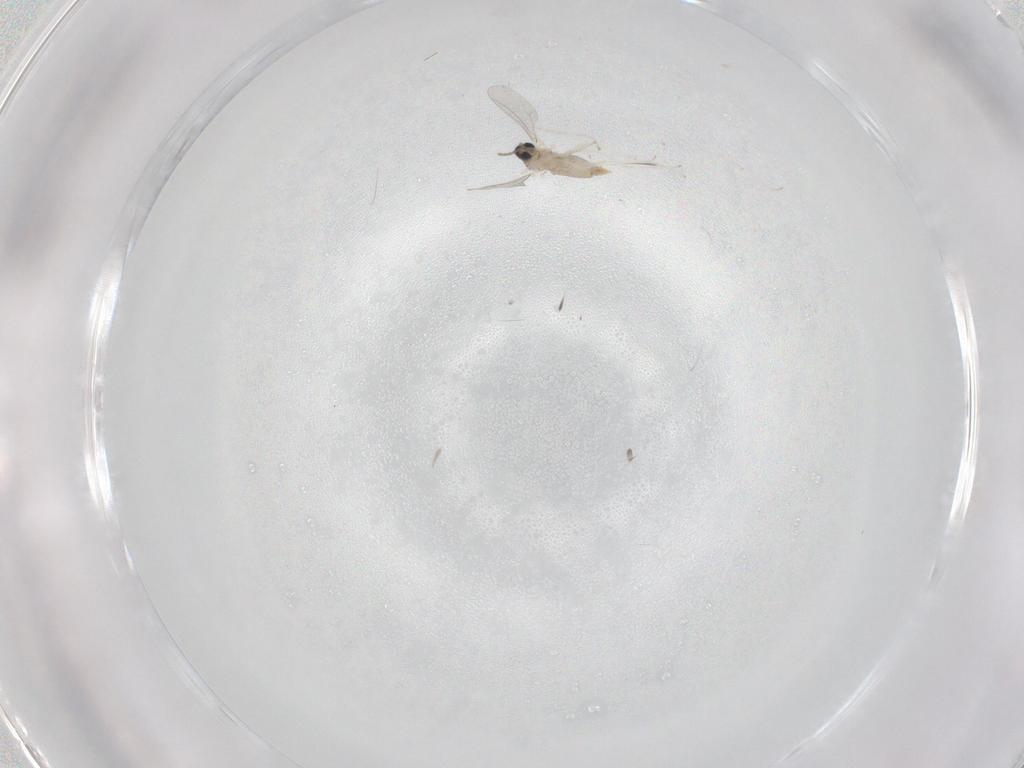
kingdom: Animalia
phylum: Arthropoda
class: Insecta
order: Diptera
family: Cecidomyiidae
